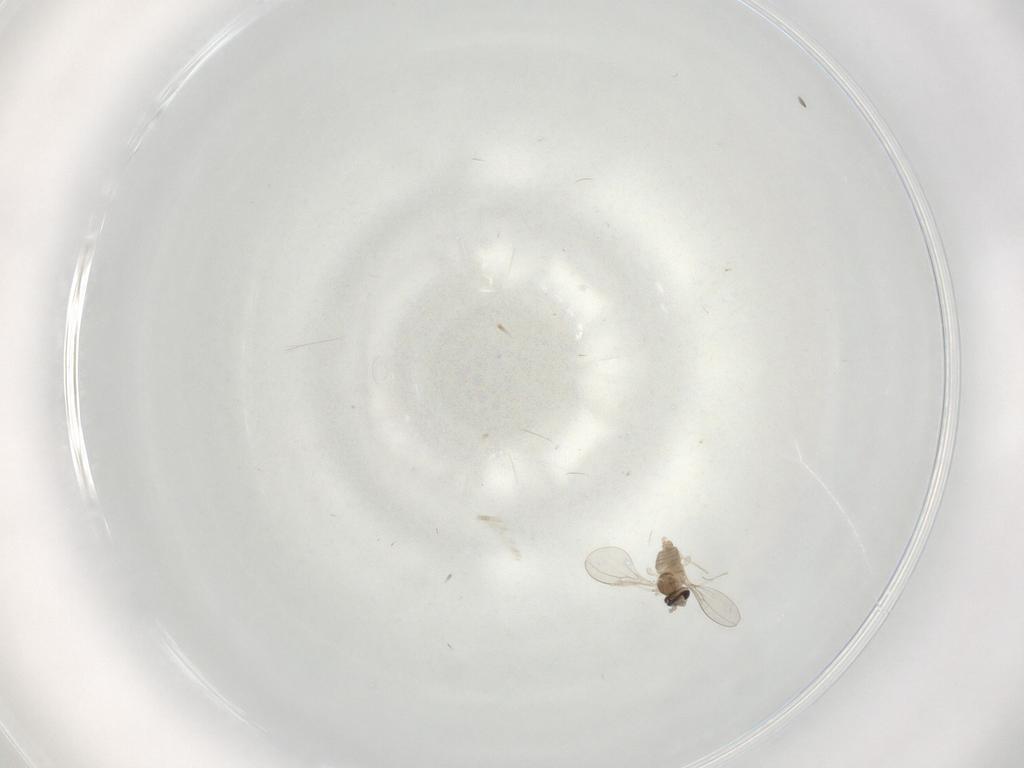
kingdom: Animalia
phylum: Arthropoda
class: Insecta
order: Diptera
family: Cecidomyiidae
